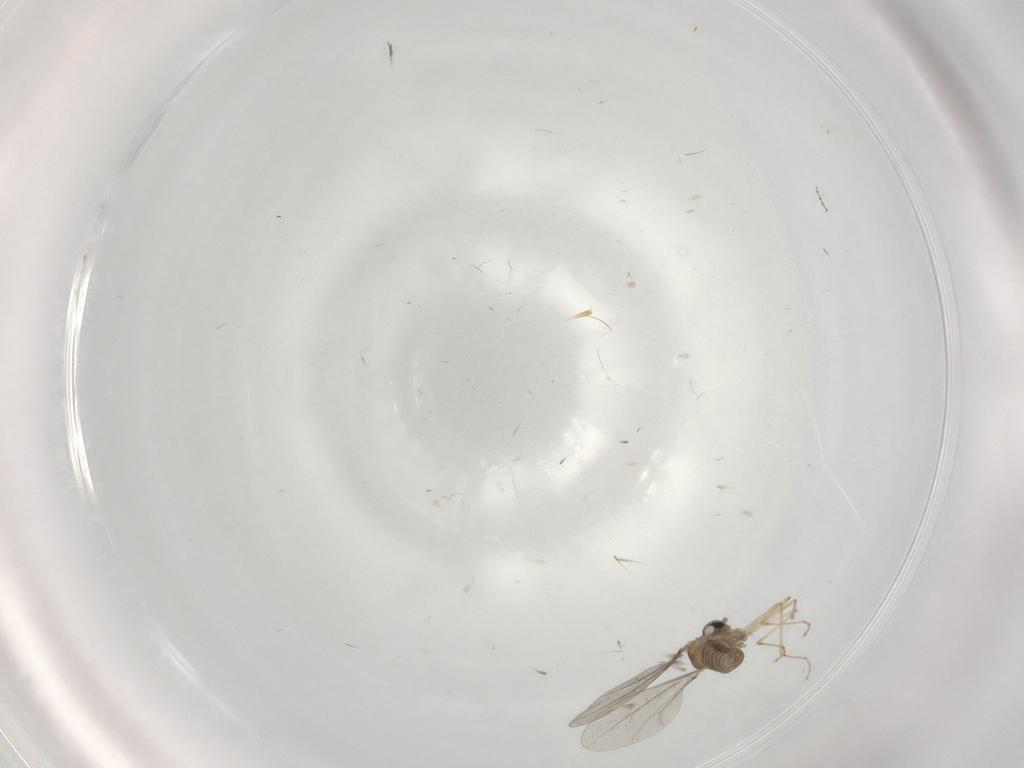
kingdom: Animalia
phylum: Arthropoda
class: Insecta
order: Diptera
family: Cecidomyiidae
